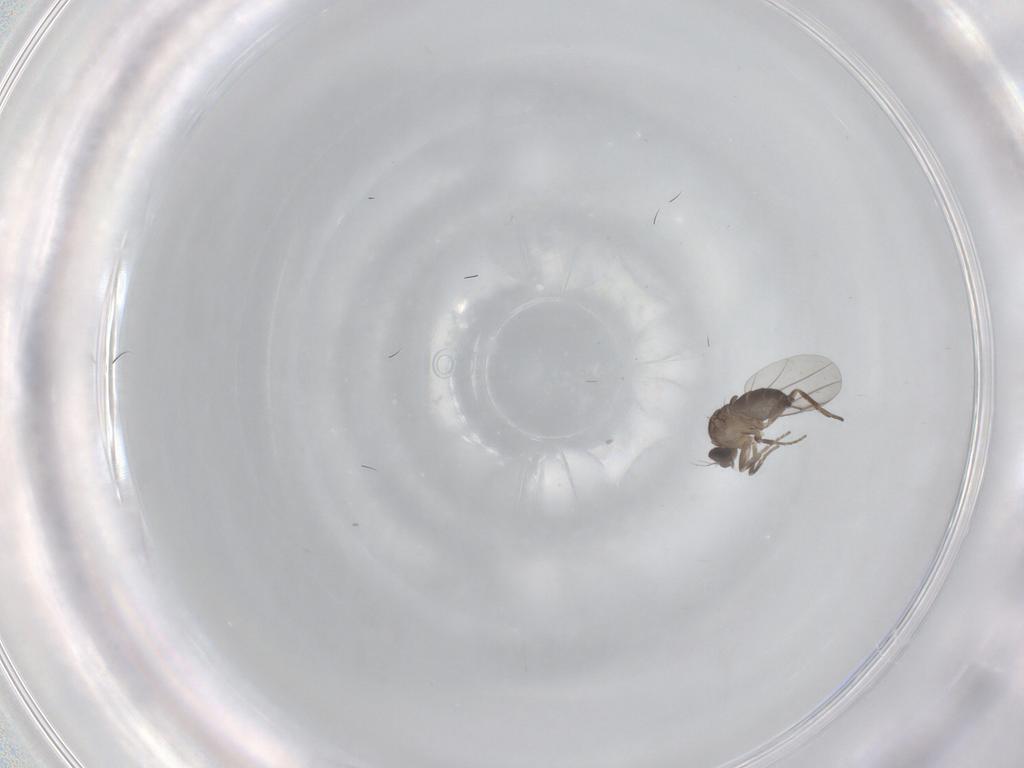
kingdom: Animalia
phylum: Arthropoda
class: Insecta
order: Diptera
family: Phoridae
